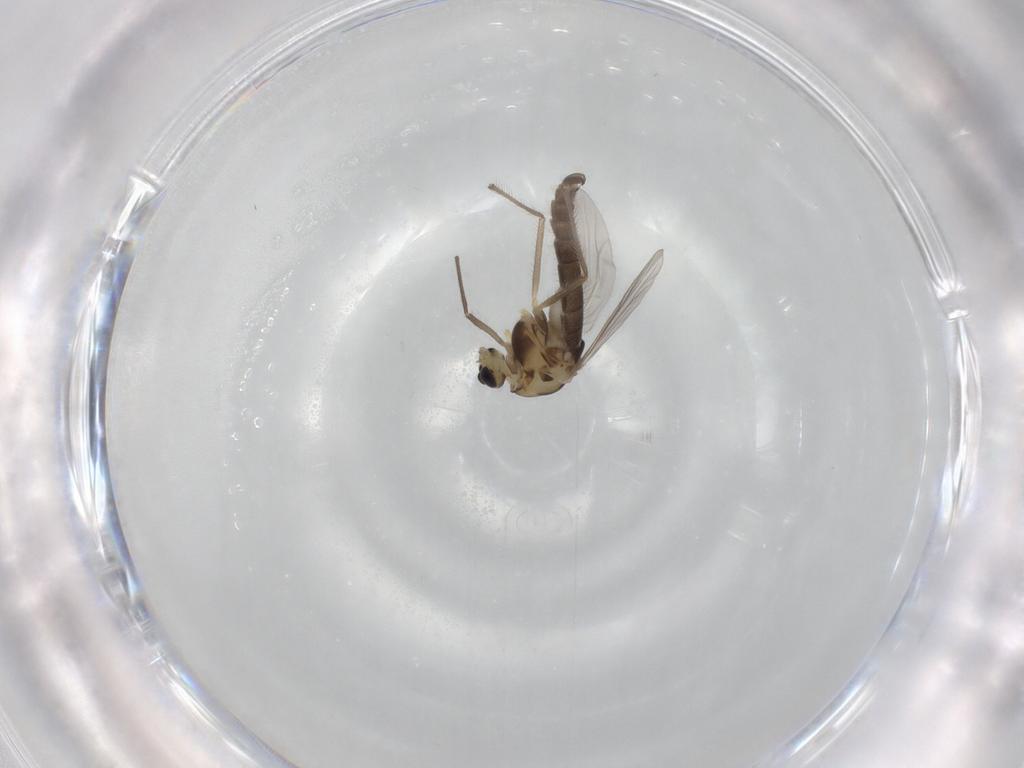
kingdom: Animalia
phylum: Arthropoda
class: Insecta
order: Diptera
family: Chironomidae
